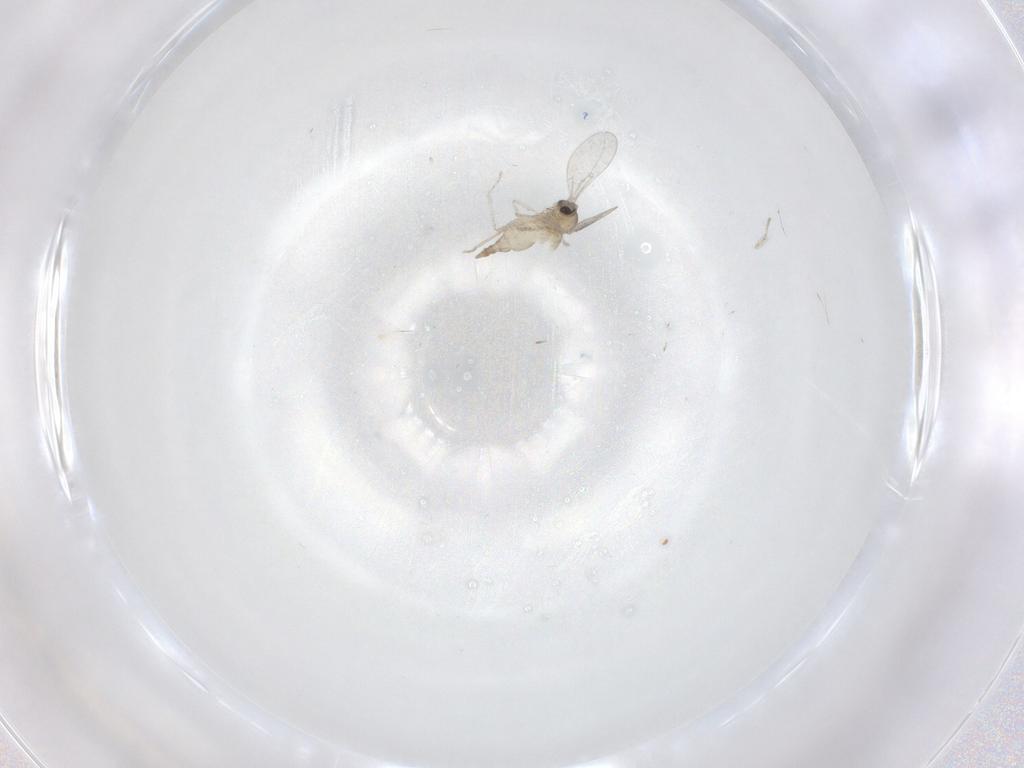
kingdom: Animalia
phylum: Arthropoda
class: Insecta
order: Diptera
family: Cecidomyiidae
